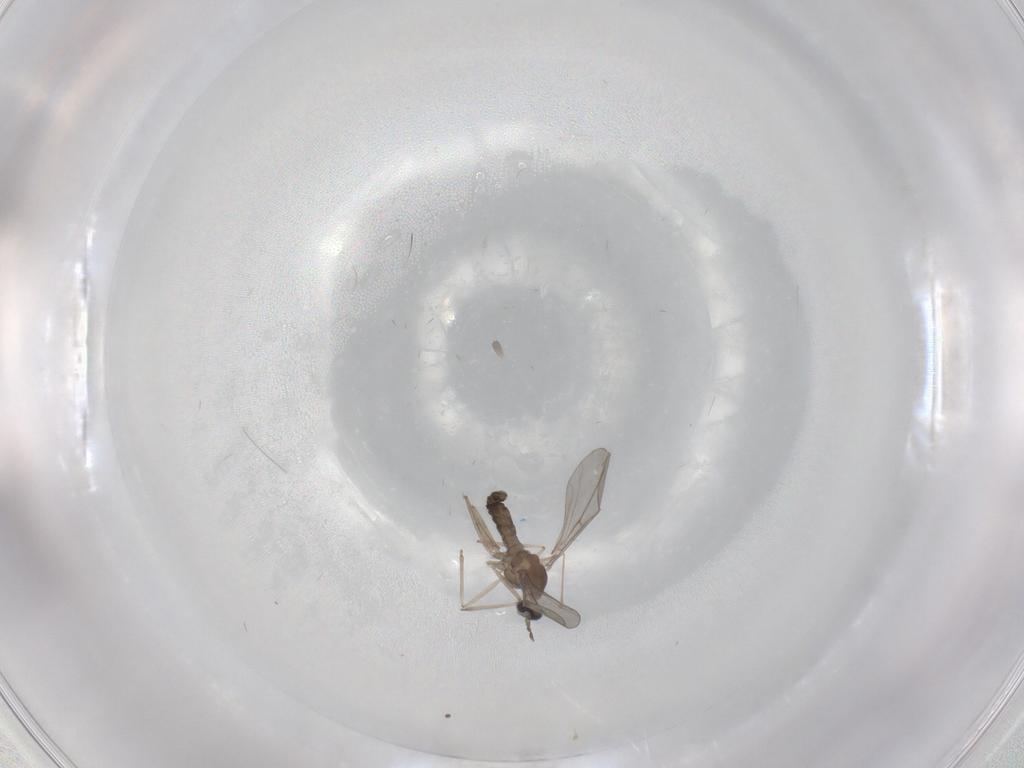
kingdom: Animalia
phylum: Arthropoda
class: Insecta
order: Diptera
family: Psychodidae
